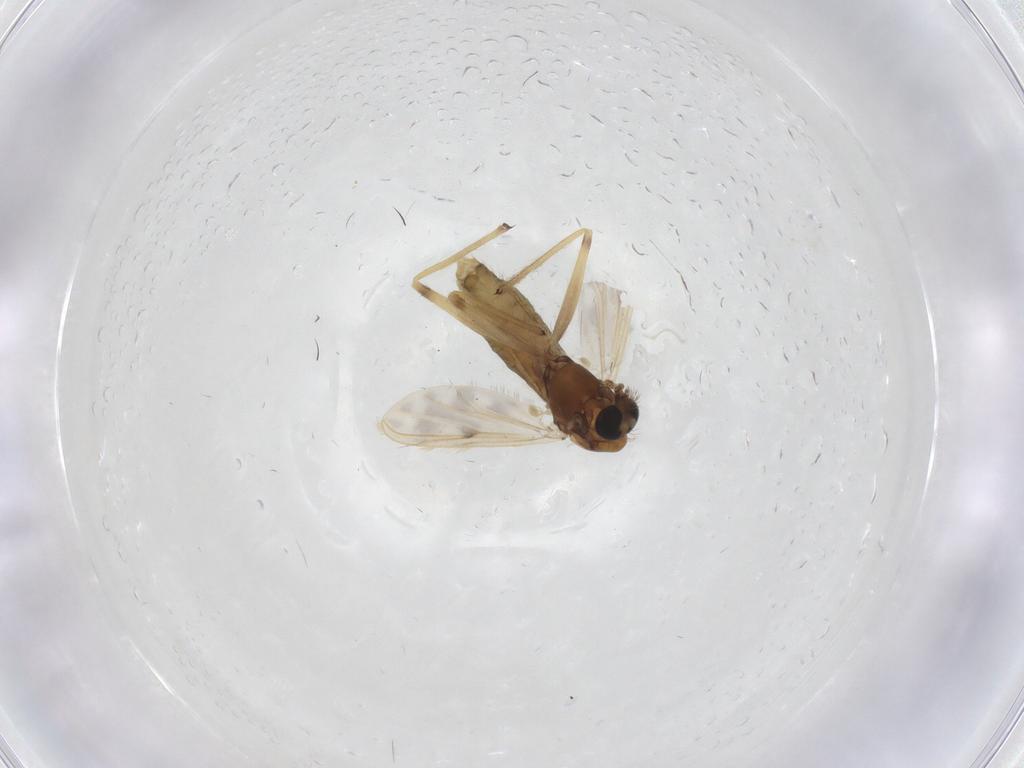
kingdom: Animalia
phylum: Arthropoda
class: Insecta
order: Diptera
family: Chironomidae
